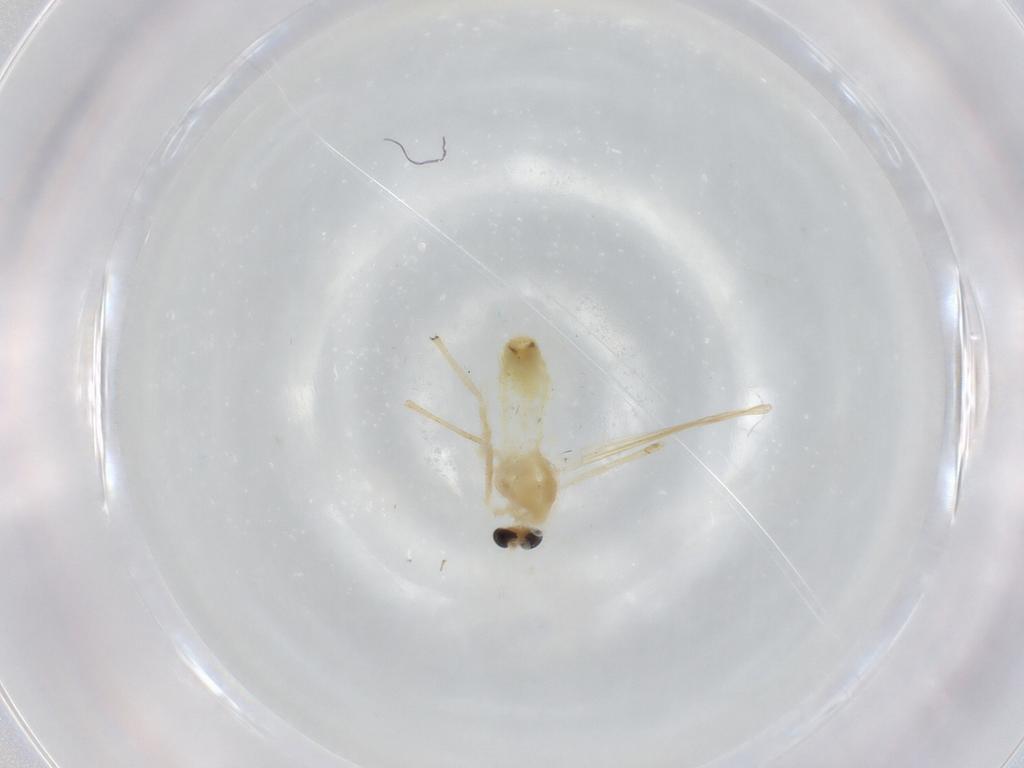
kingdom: Animalia
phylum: Arthropoda
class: Insecta
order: Diptera
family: Chironomidae
